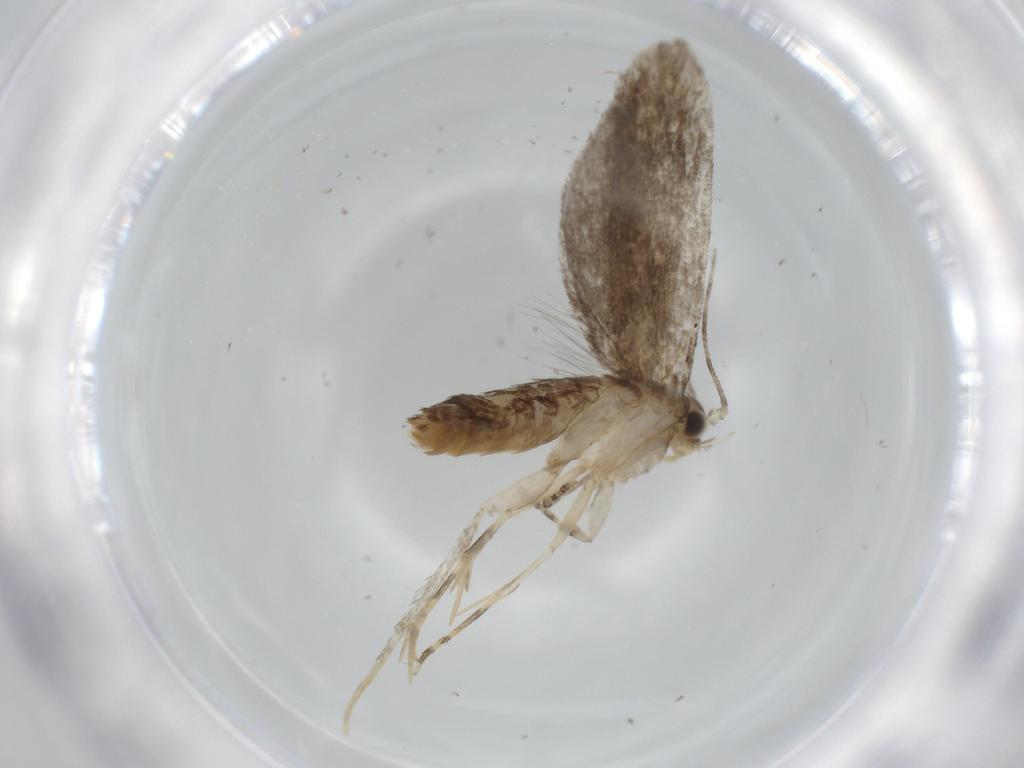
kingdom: Animalia
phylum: Arthropoda
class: Insecta
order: Lepidoptera
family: Tineidae
